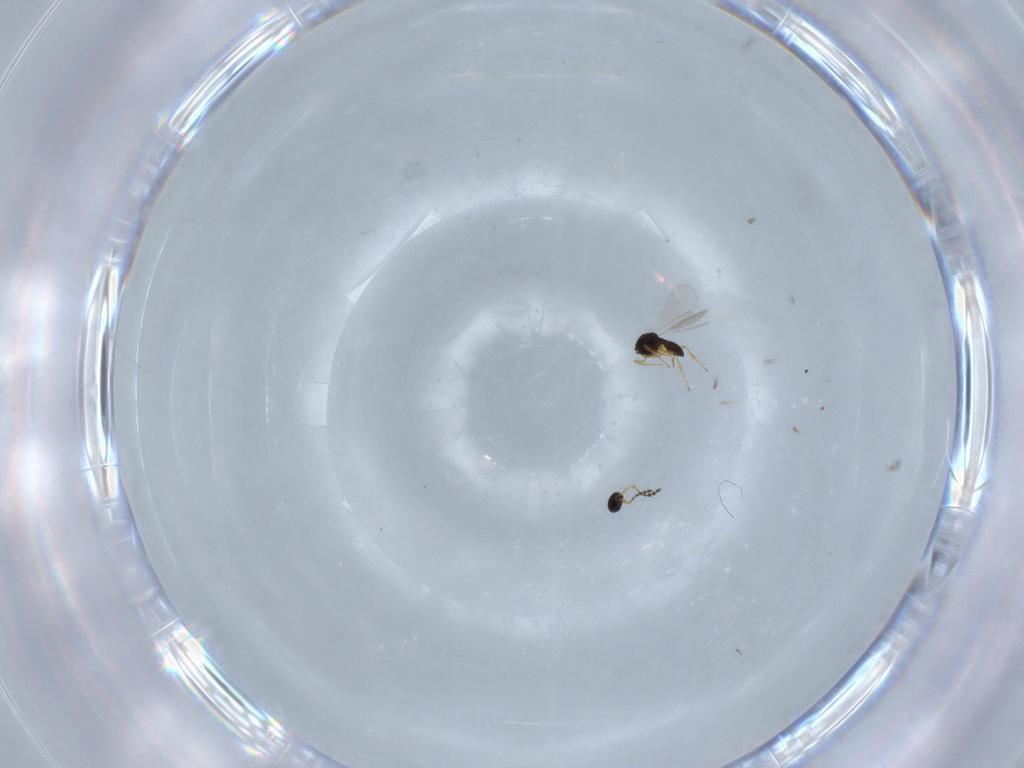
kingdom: Animalia
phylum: Arthropoda
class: Insecta
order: Hymenoptera
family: Platygastridae
